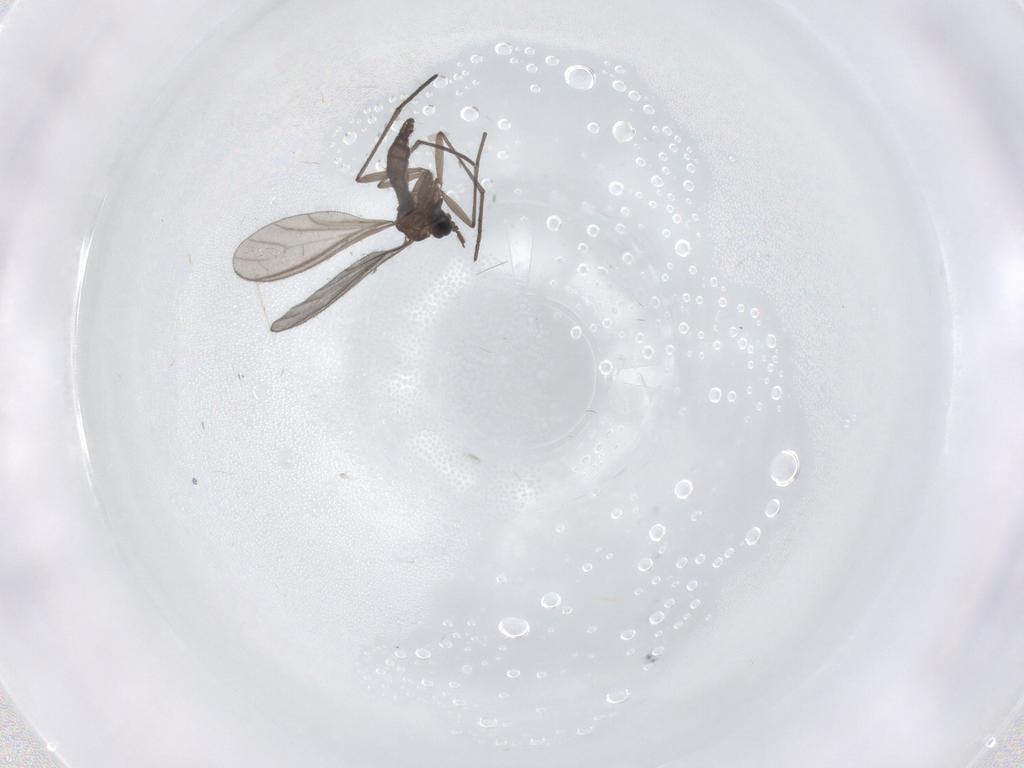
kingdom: Animalia
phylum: Arthropoda
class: Insecta
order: Diptera
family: Sciaridae
